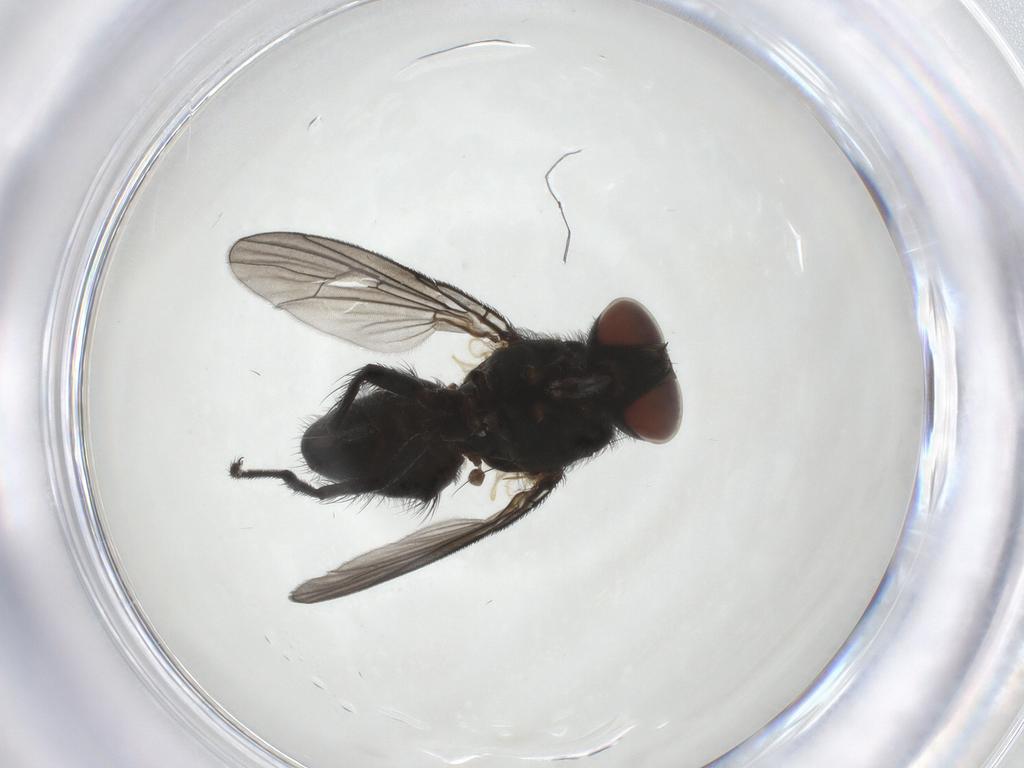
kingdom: Animalia
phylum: Arthropoda
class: Insecta
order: Diptera
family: Muscidae
